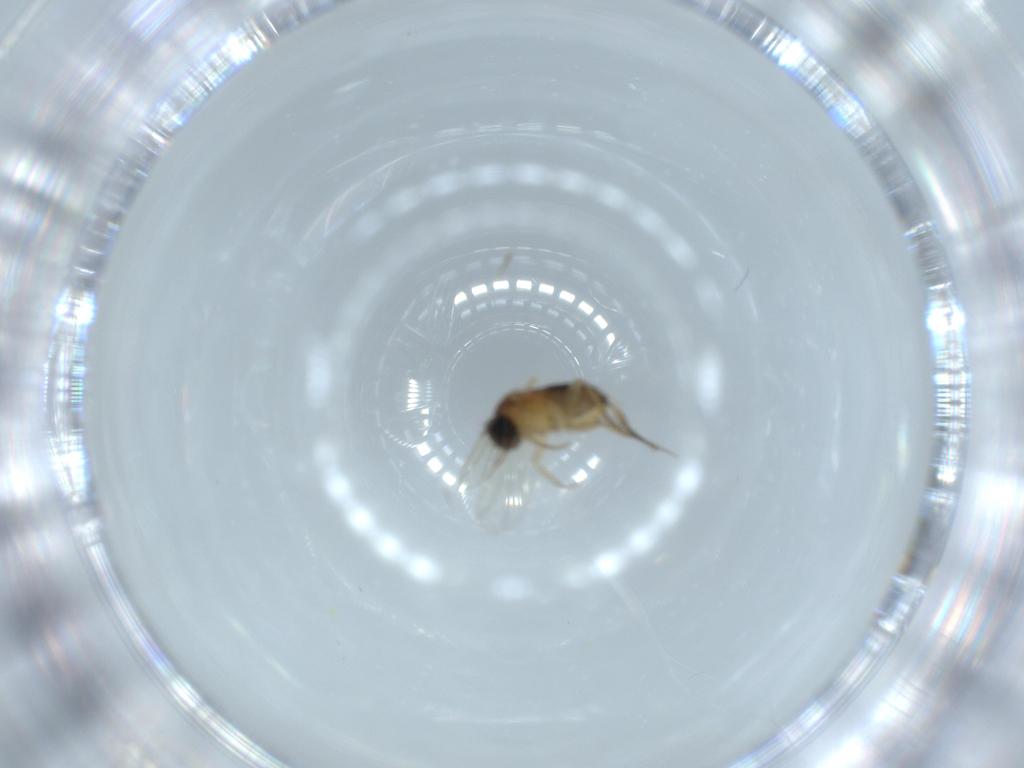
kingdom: Animalia
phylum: Arthropoda
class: Insecta
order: Diptera
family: Phoridae
